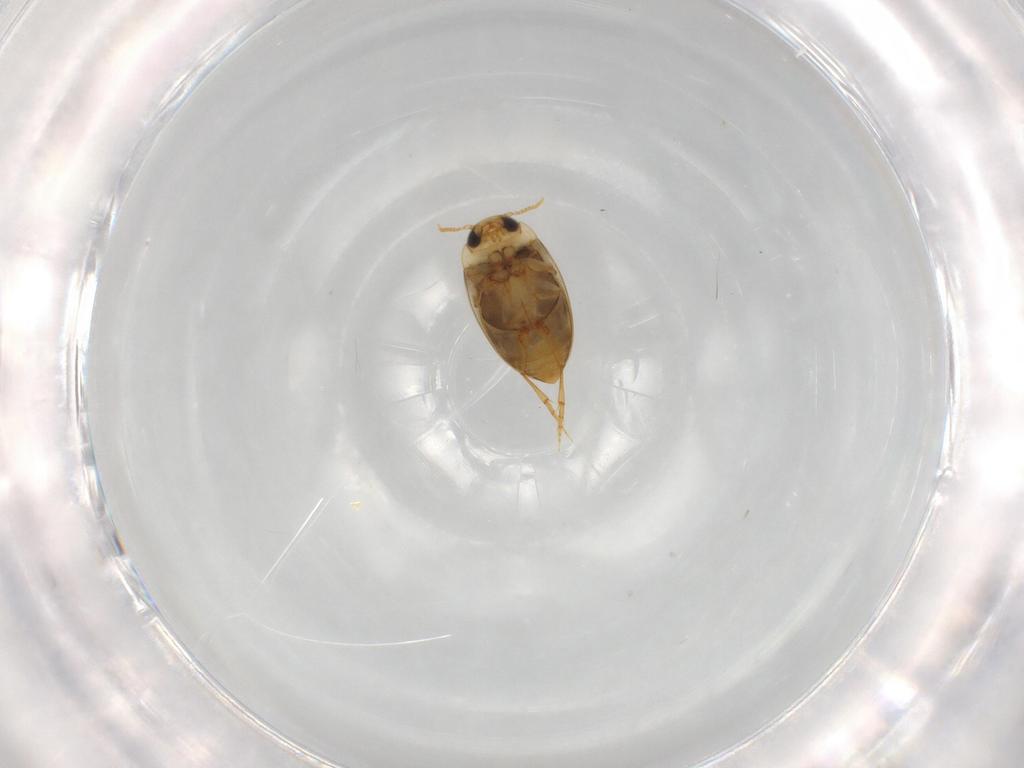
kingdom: Animalia
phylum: Arthropoda
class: Insecta
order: Coleoptera
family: Dytiscidae
